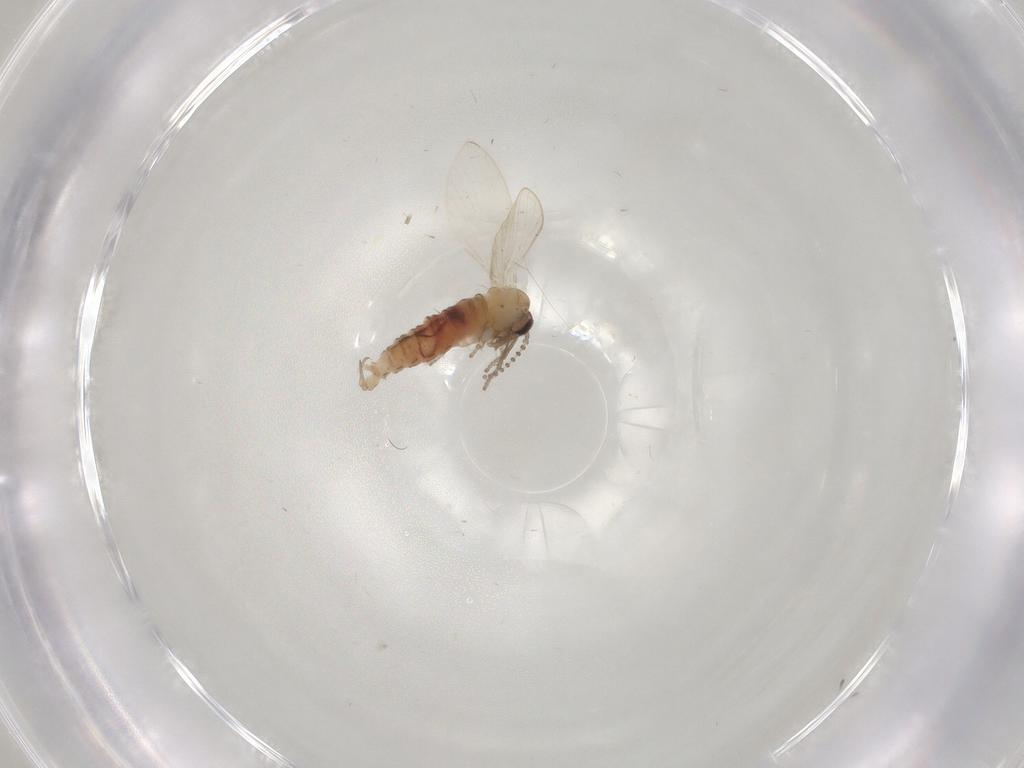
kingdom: Animalia
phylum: Arthropoda
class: Insecta
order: Diptera
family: Psychodidae
